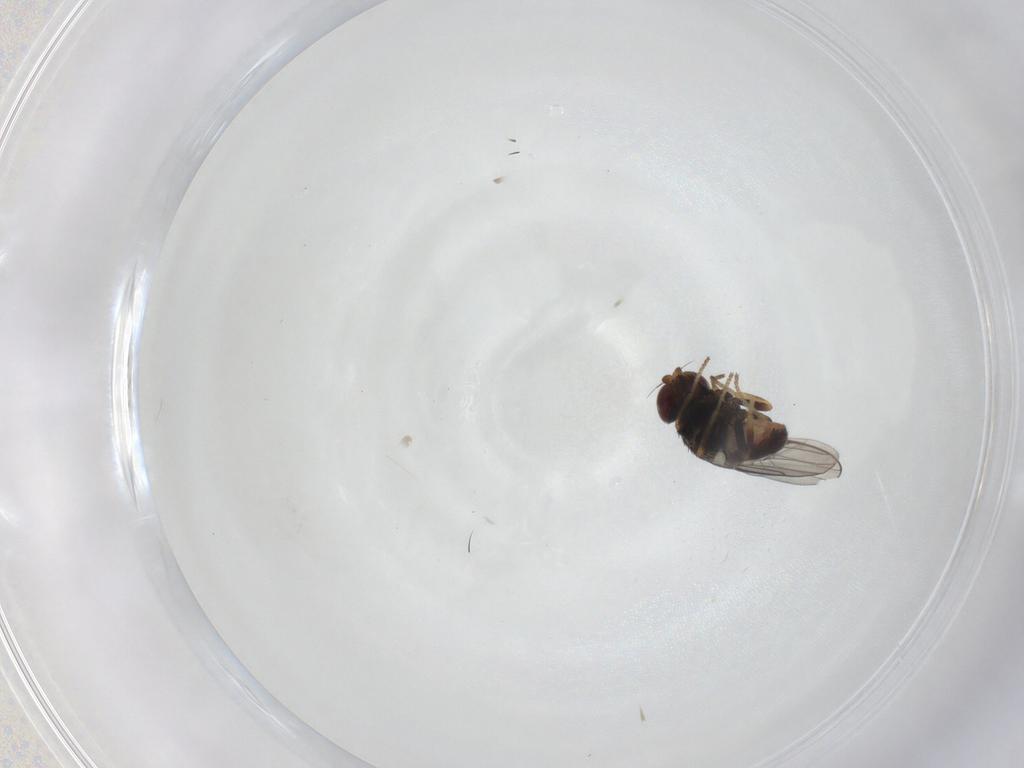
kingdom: Animalia
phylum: Arthropoda
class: Insecta
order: Diptera
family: Chloropidae
